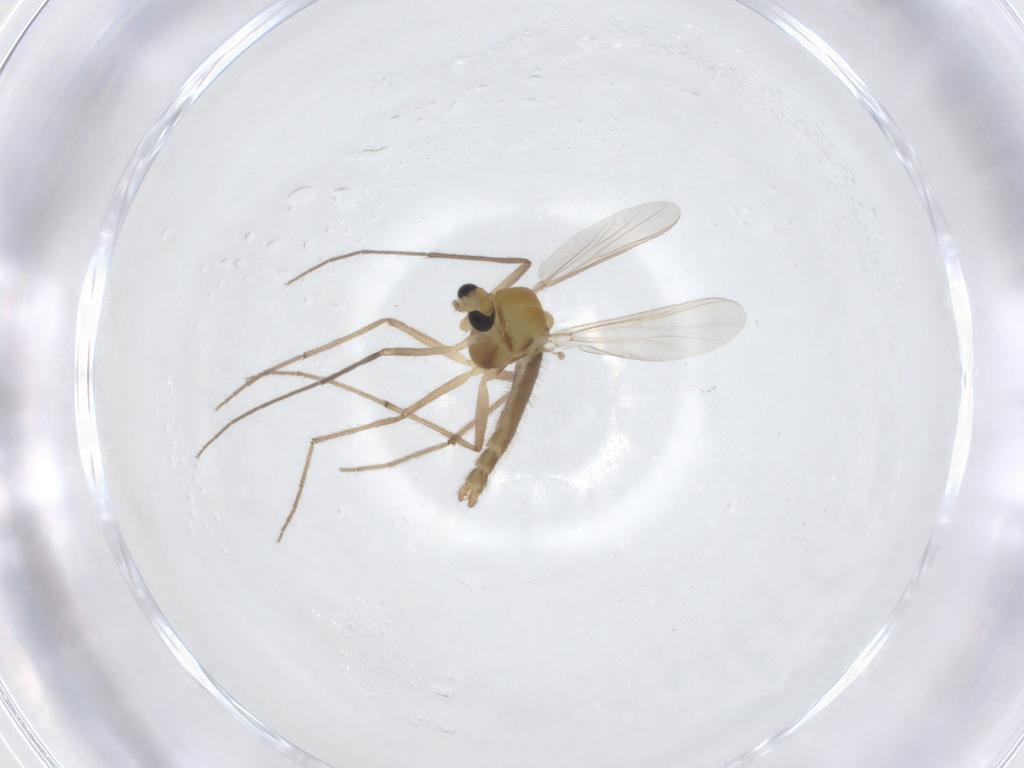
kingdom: Animalia
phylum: Arthropoda
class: Insecta
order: Diptera
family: Chironomidae
